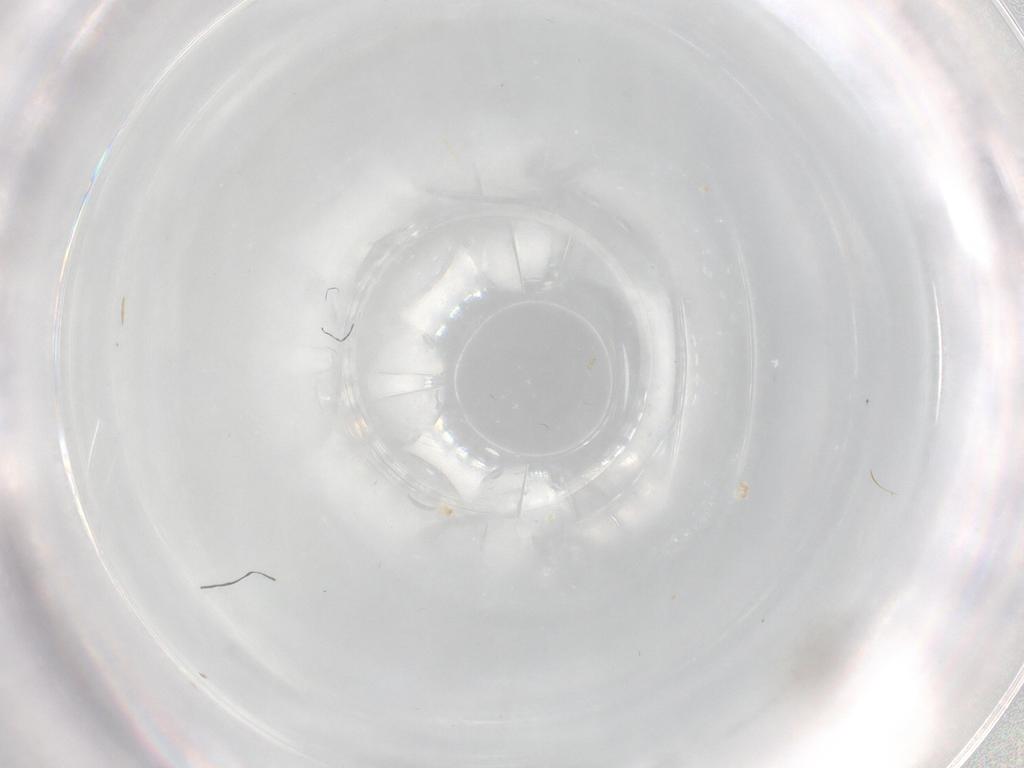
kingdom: Animalia
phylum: Arthropoda
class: Insecta
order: Diptera
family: Cecidomyiidae
